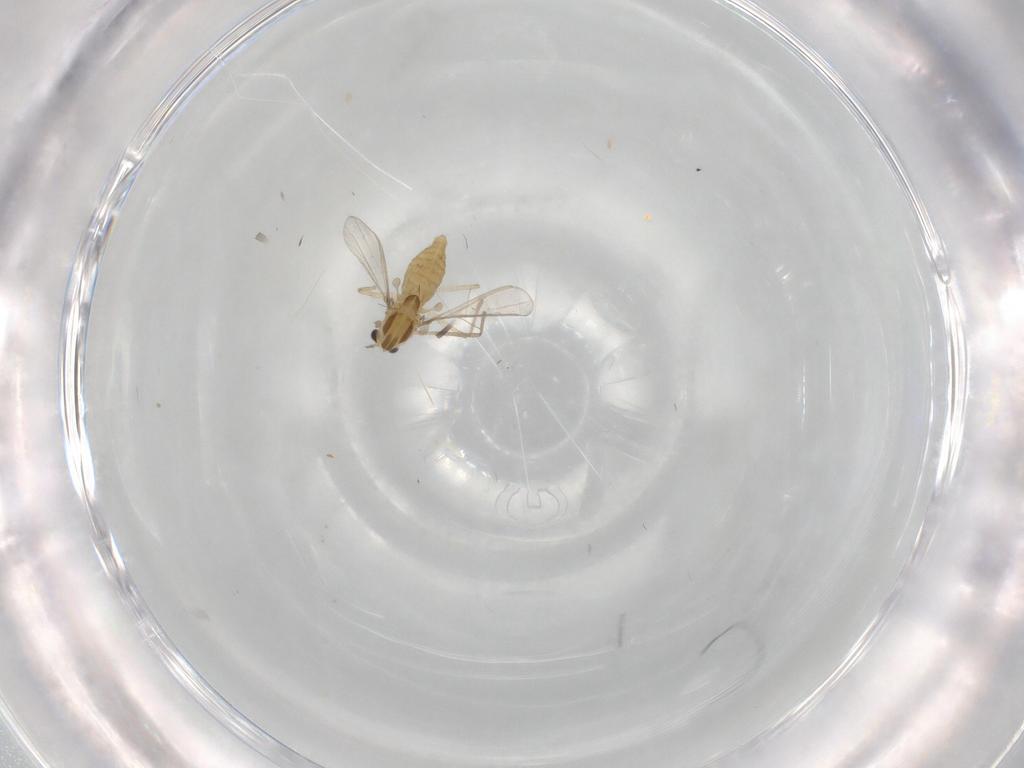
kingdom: Animalia
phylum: Arthropoda
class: Insecta
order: Diptera
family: Chironomidae
